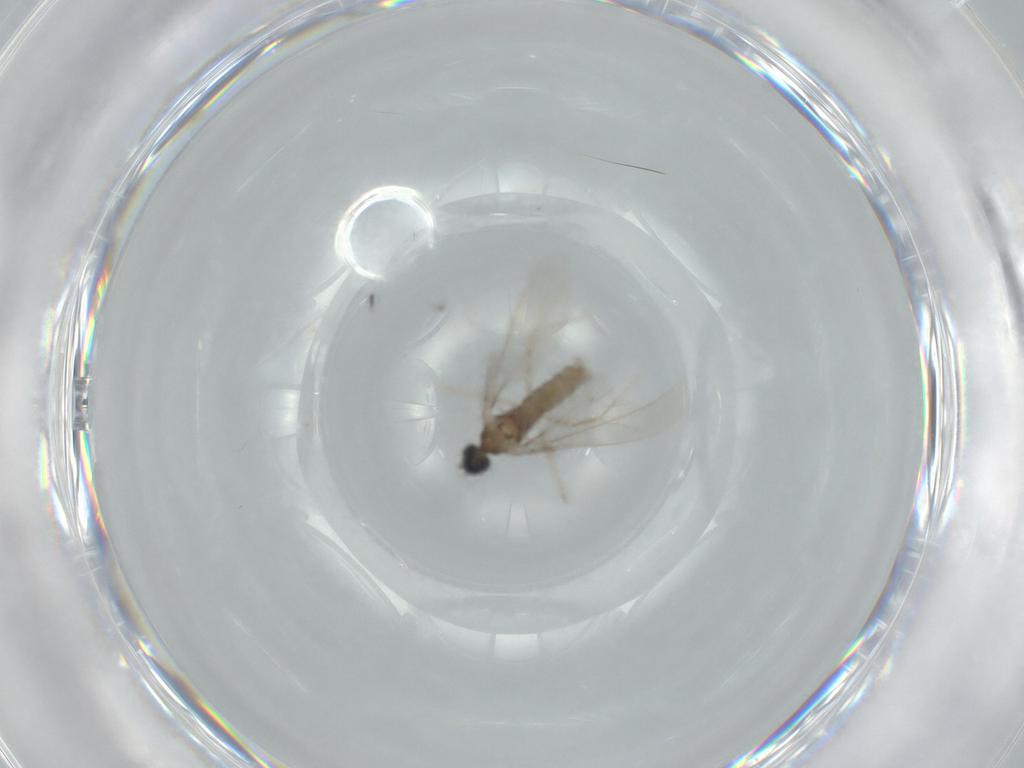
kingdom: Animalia
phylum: Arthropoda
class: Insecta
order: Diptera
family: Cecidomyiidae
